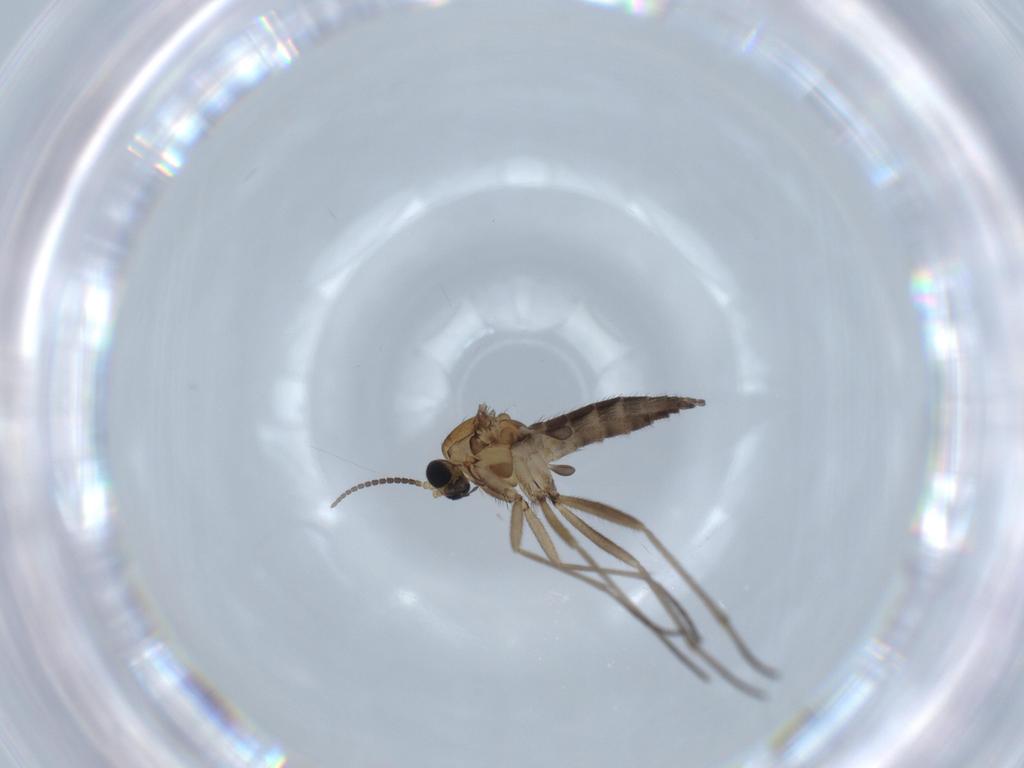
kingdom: Animalia
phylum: Arthropoda
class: Insecta
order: Diptera
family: Sciaridae
